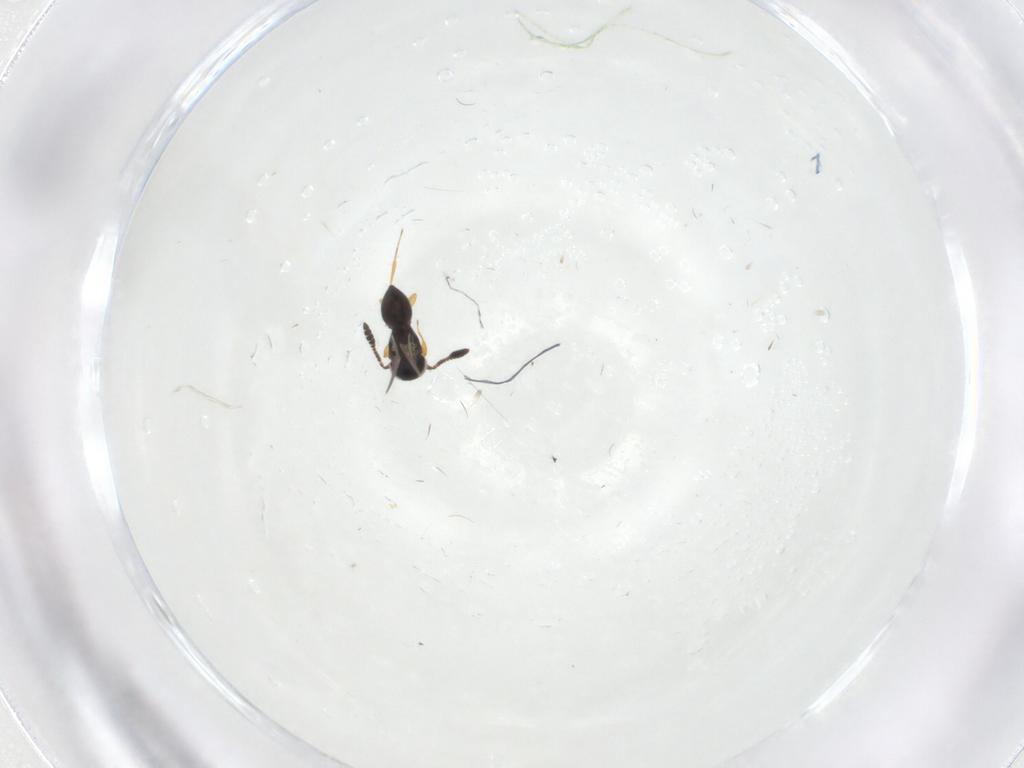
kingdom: Animalia
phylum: Arthropoda
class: Insecta
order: Hymenoptera
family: Scelionidae
